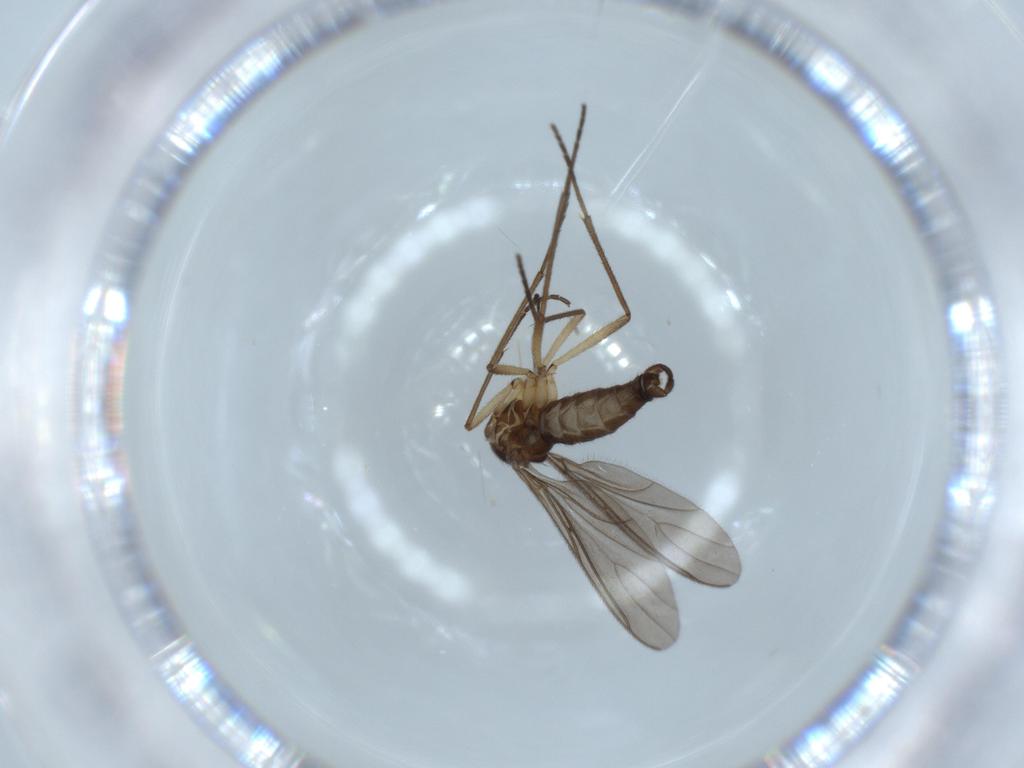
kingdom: Animalia
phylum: Arthropoda
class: Insecta
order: Diptera
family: Sciaridae
